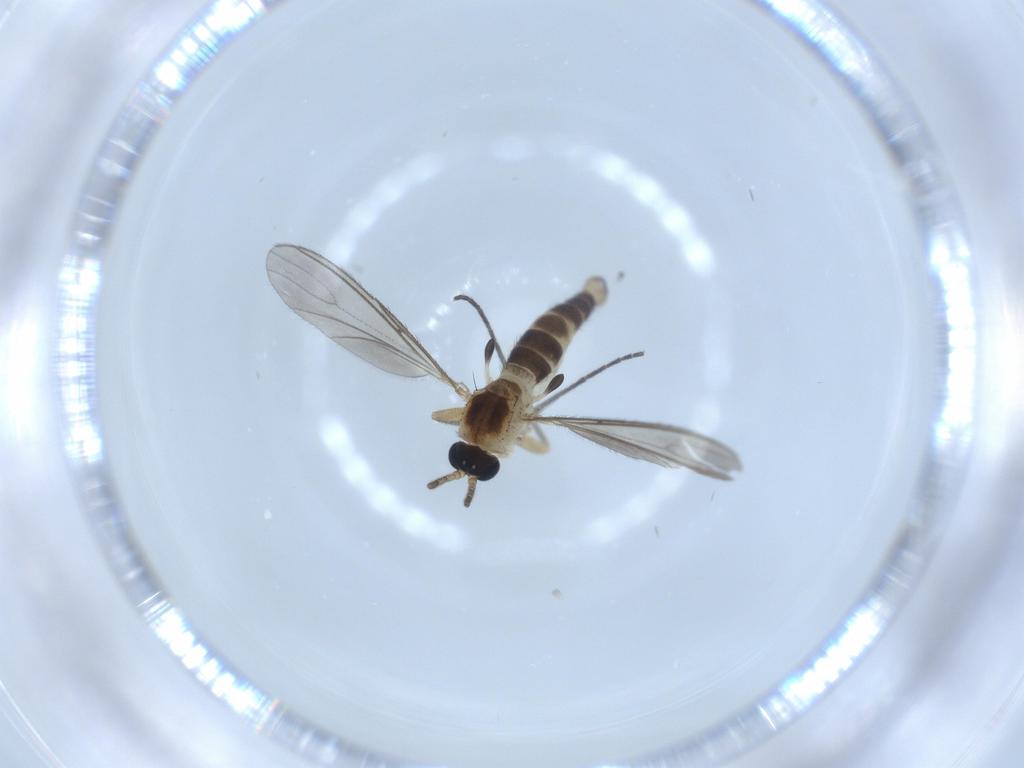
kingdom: Animalia
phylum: Arthropoda
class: Insecta
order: Diptera
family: Sciaridae
